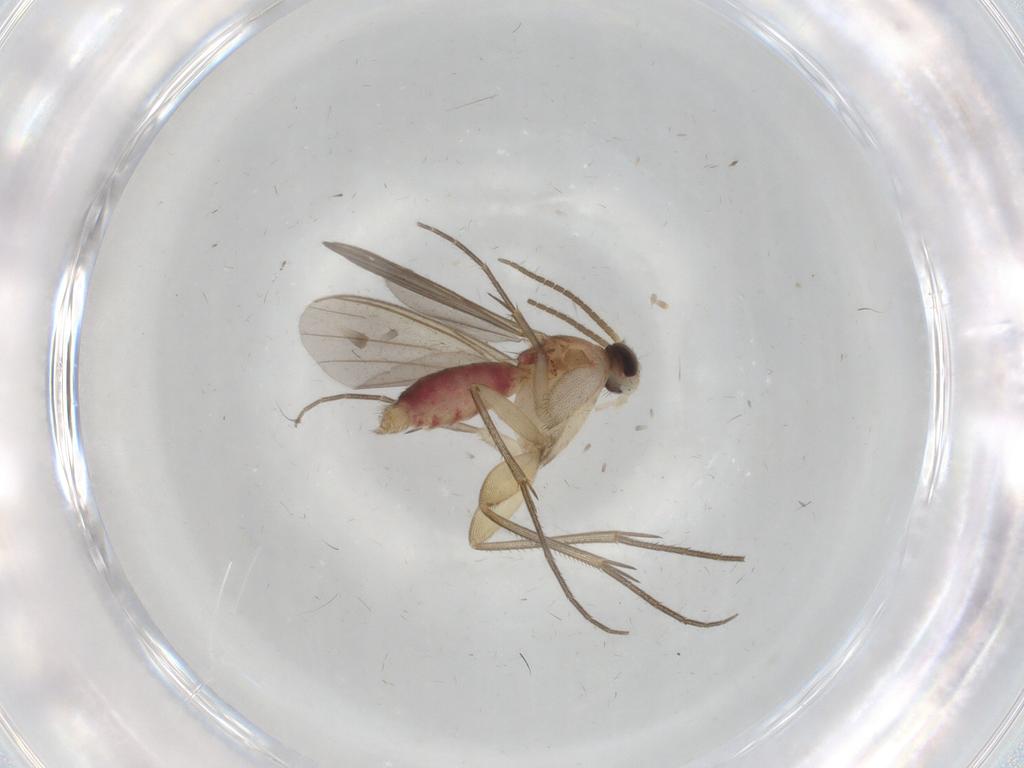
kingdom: Animalia
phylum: Arthropoda
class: Insecta
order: Diptera
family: Mycetophilidae
